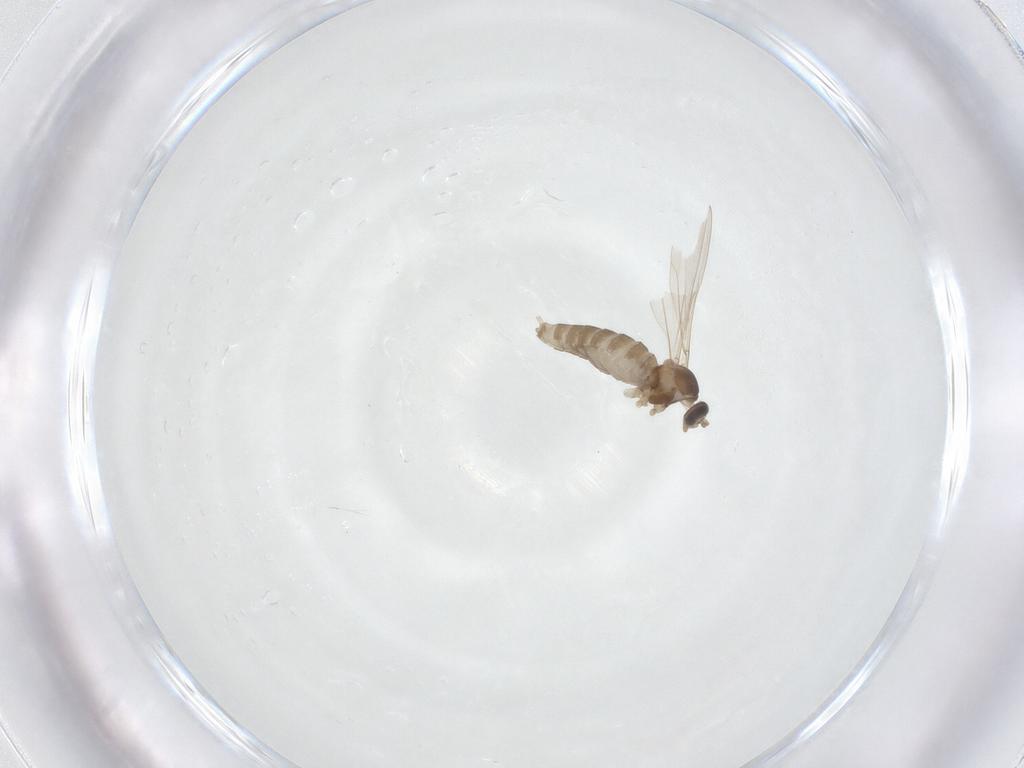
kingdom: Animalia
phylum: Arthropoda
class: Insecta
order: Diptera
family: Cecidomyiidae
